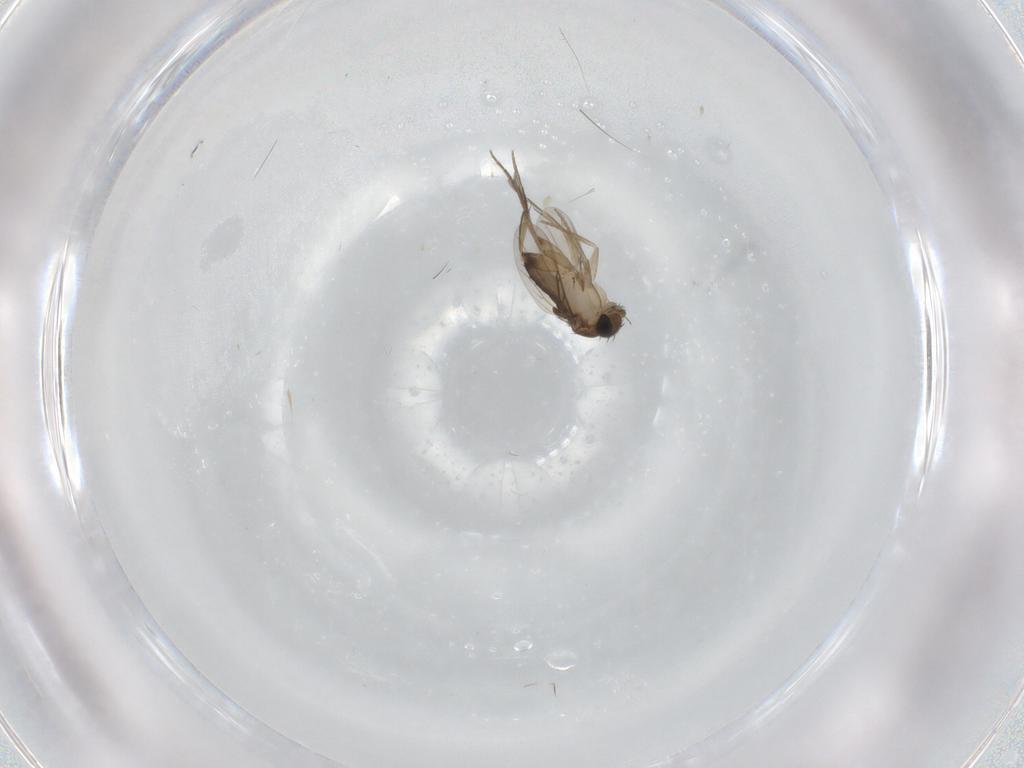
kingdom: Animalia
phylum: Arthropoda
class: Insecta
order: Diptera
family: Phoridae
